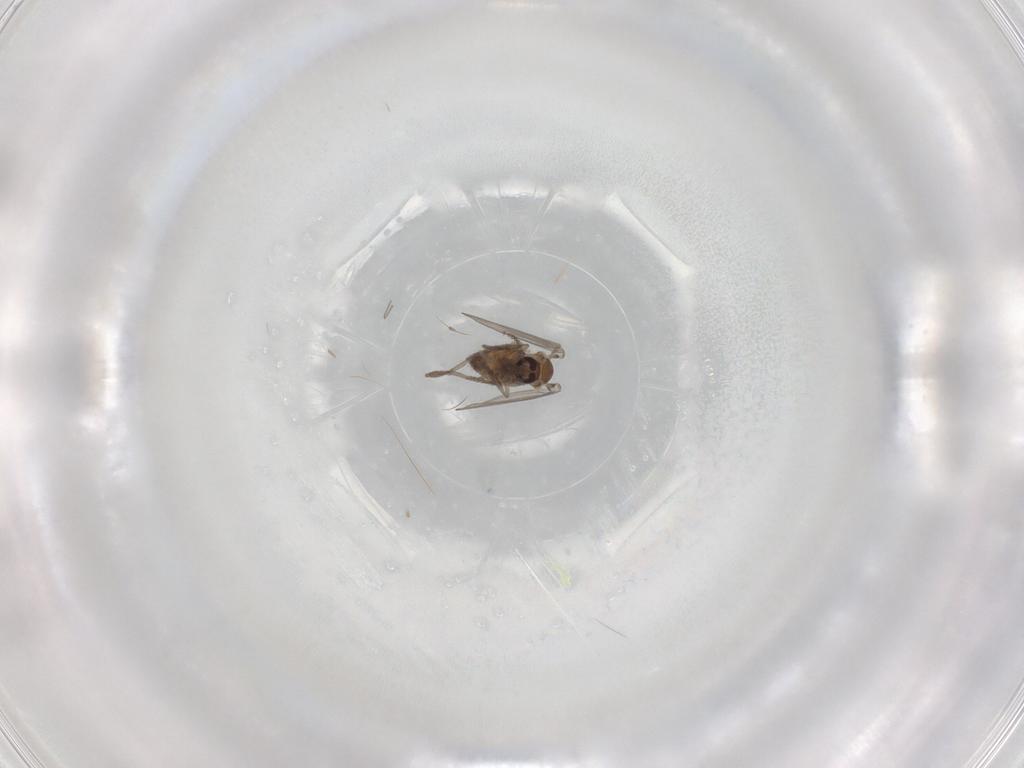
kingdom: Animalia
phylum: Arthropoda
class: Insecta
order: Diptera
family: Psychodidae
